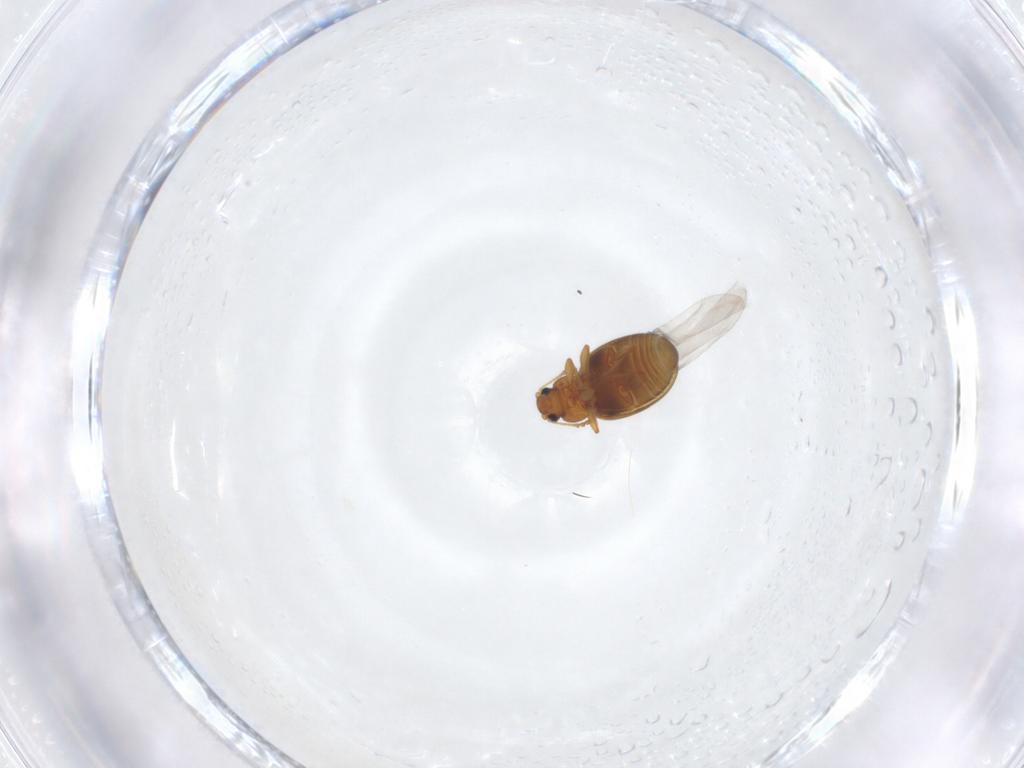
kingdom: Animalia
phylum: Arthropoda
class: Insecta
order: Coleoptera
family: Latridiidae
